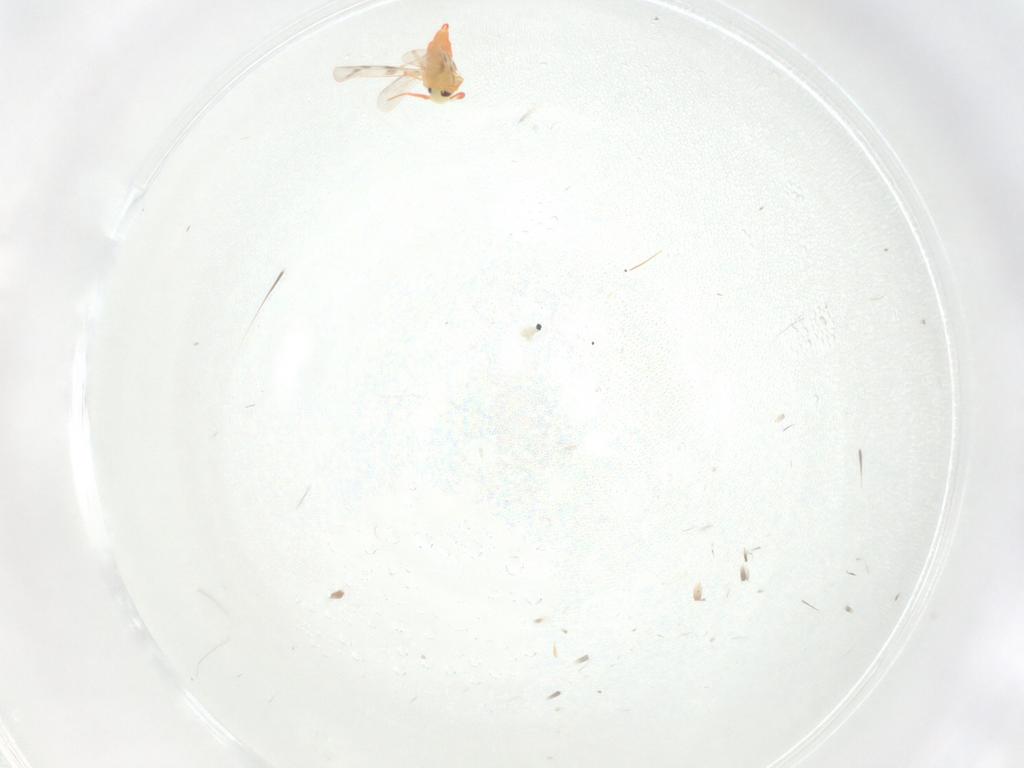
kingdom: Animalia
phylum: Arthropoda
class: Insecta
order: Hemiptera
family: Aleyrodidae
